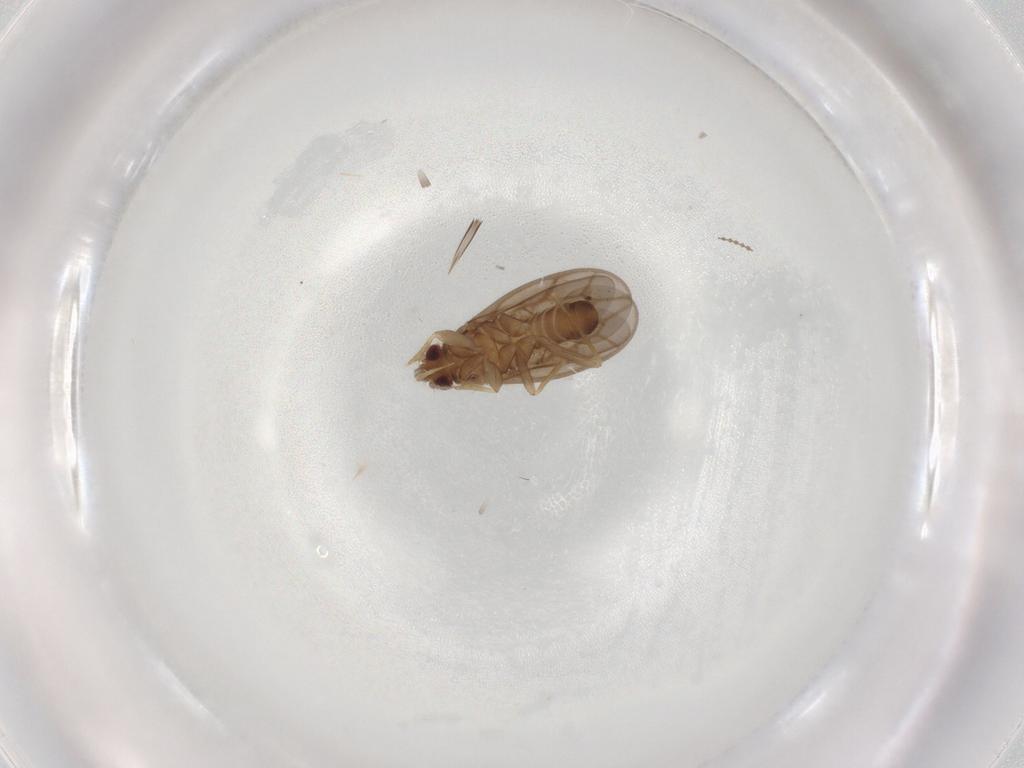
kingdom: Animalia
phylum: Arthropoda
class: Insecta
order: Hemiptera
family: Ceratocombidae
